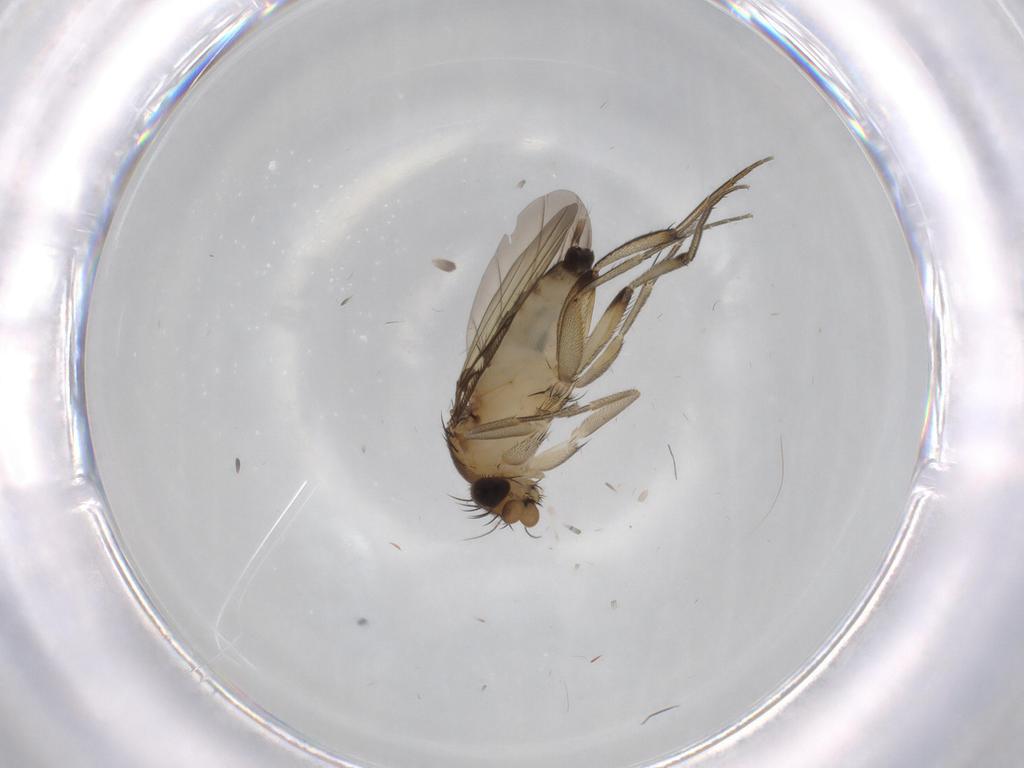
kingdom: Animalia
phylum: Arthropoda
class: Insecta
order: Diptera
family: Phoridae
